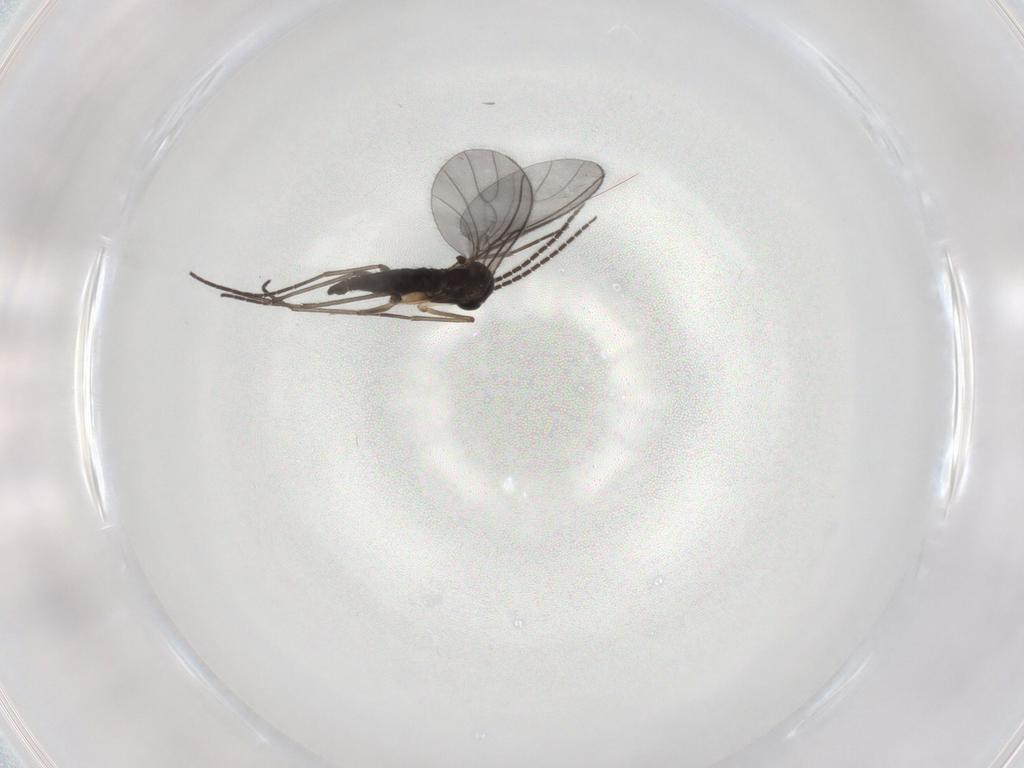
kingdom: Animalia
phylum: Arthropoda
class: Insecta
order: Diptera
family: Sciaridae
